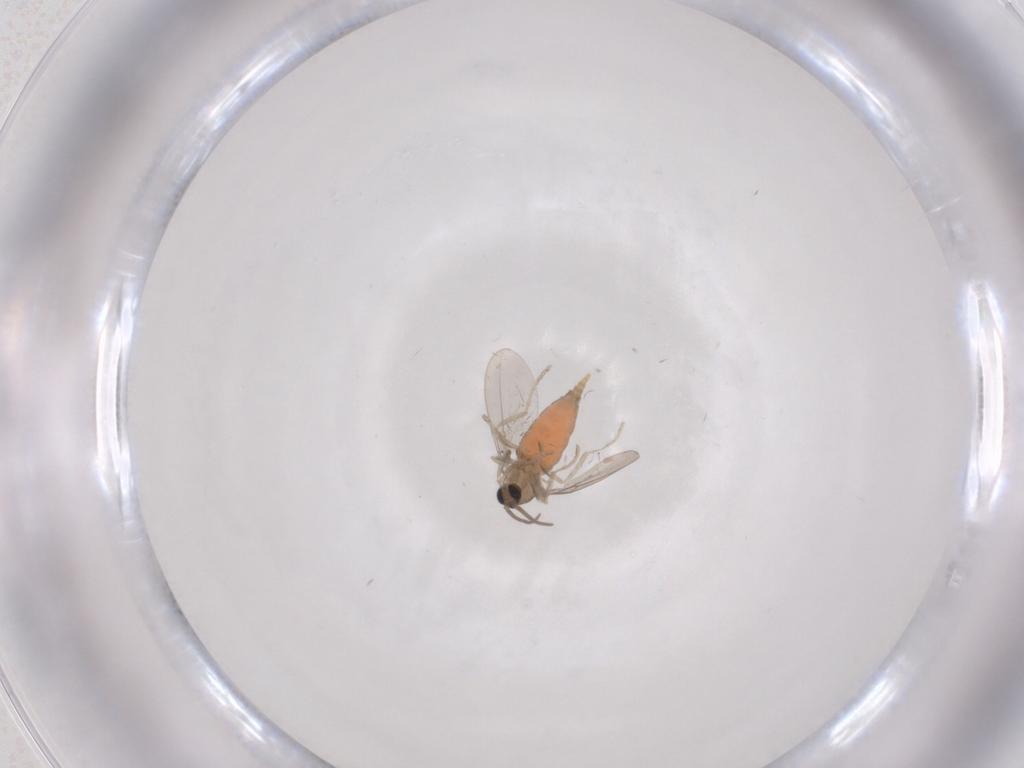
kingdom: Animalia
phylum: Arthropoda
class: Insecta
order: Diptera
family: Cecidomyiidae
